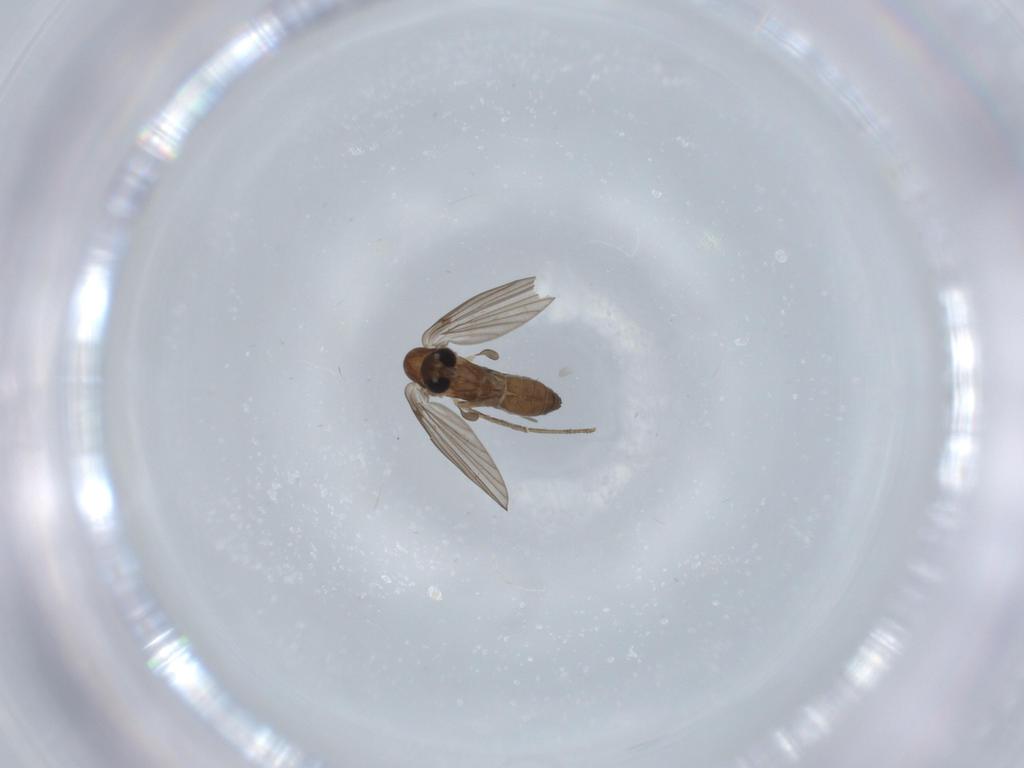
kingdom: Animalia
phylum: Arthropoda
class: Insecta
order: Diptera
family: Psychodidae
